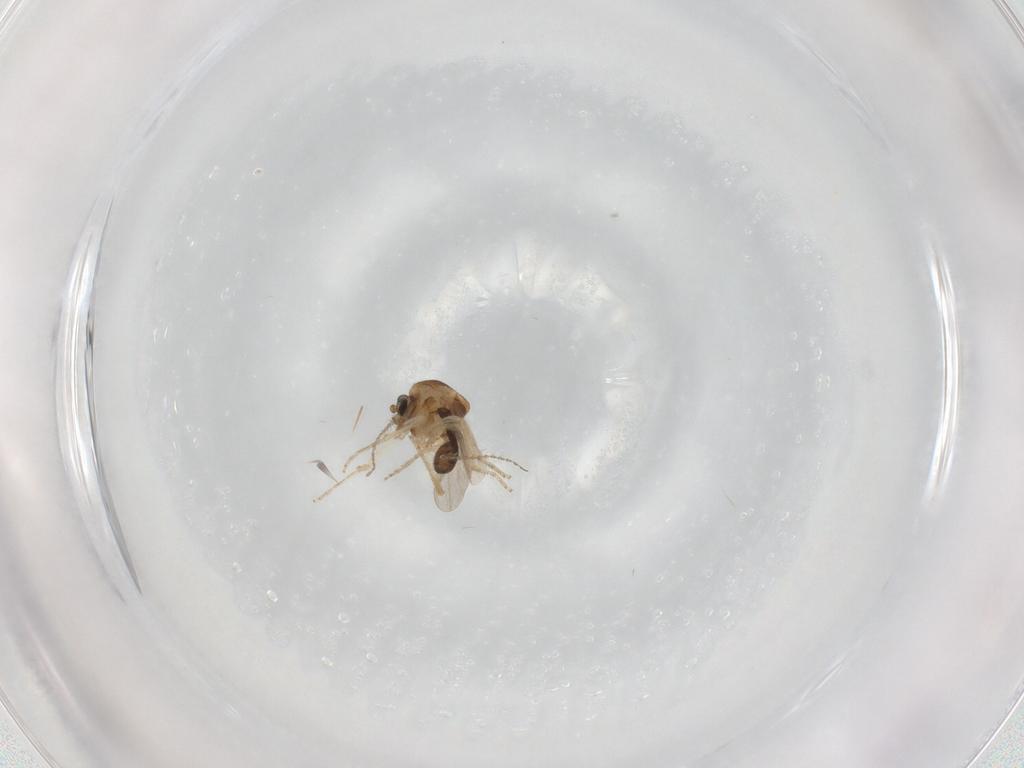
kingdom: Animalia
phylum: Arthropoda
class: Insecta
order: Diptera
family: Ceratopogonidae
